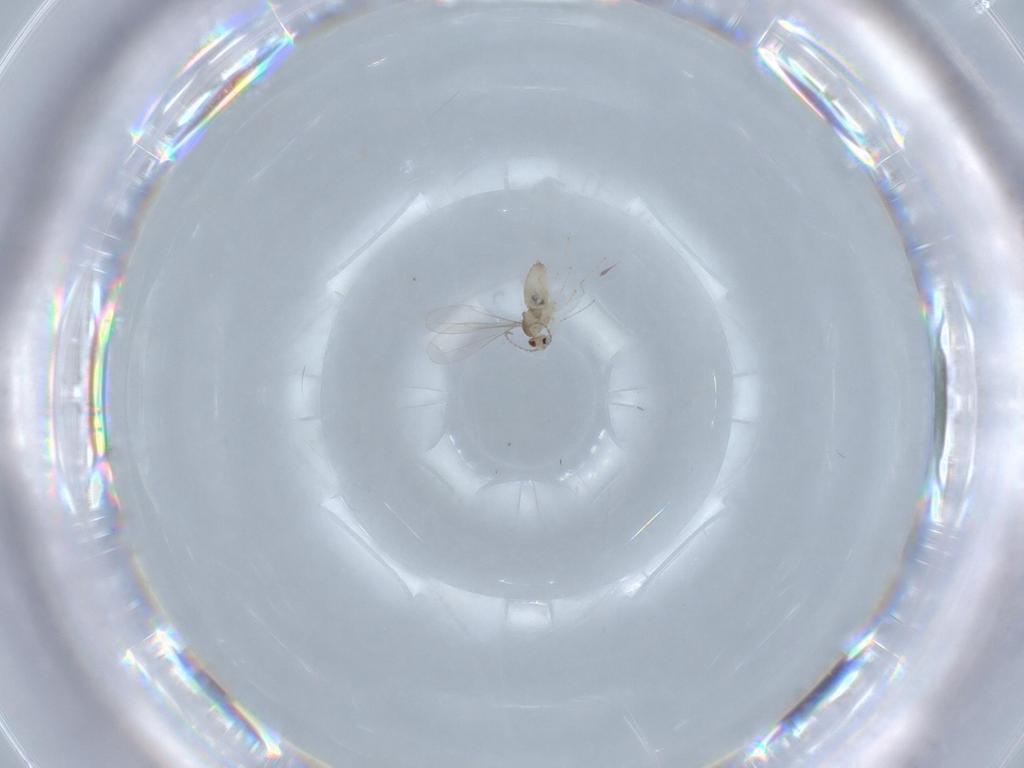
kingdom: Animalia
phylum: Arthropoda
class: Insecta
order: Diptera
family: Cecidomyiidae
